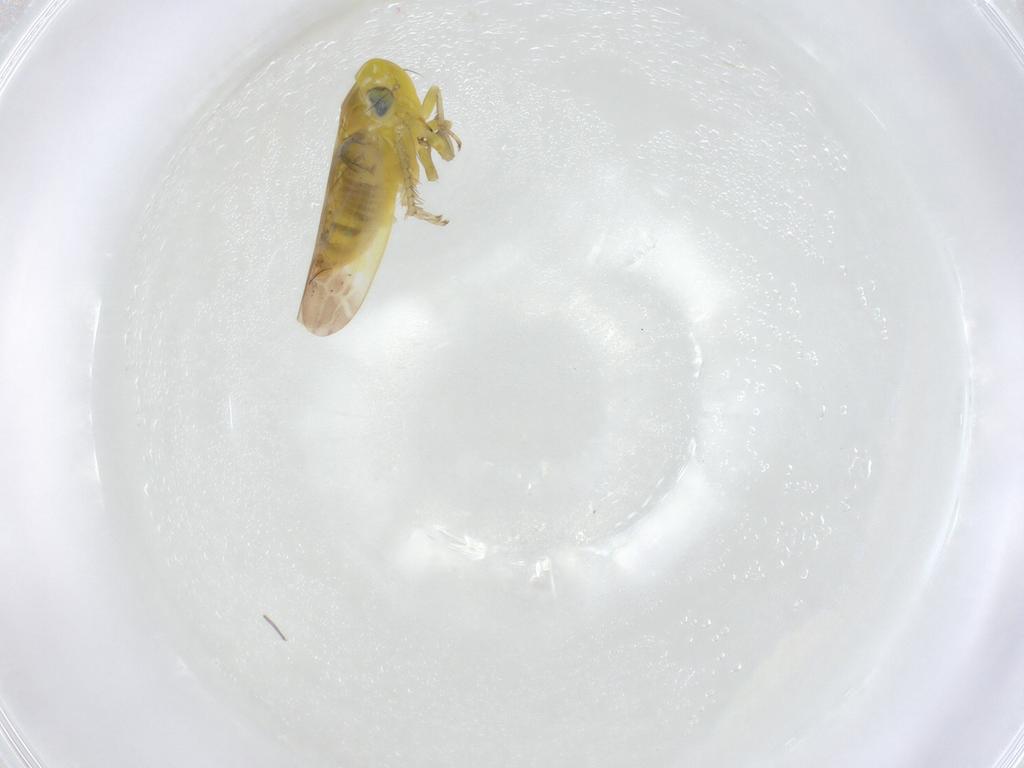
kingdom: Animalia
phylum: Arthropoda
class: Insecta
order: Hemiptera
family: Cicadellidae
